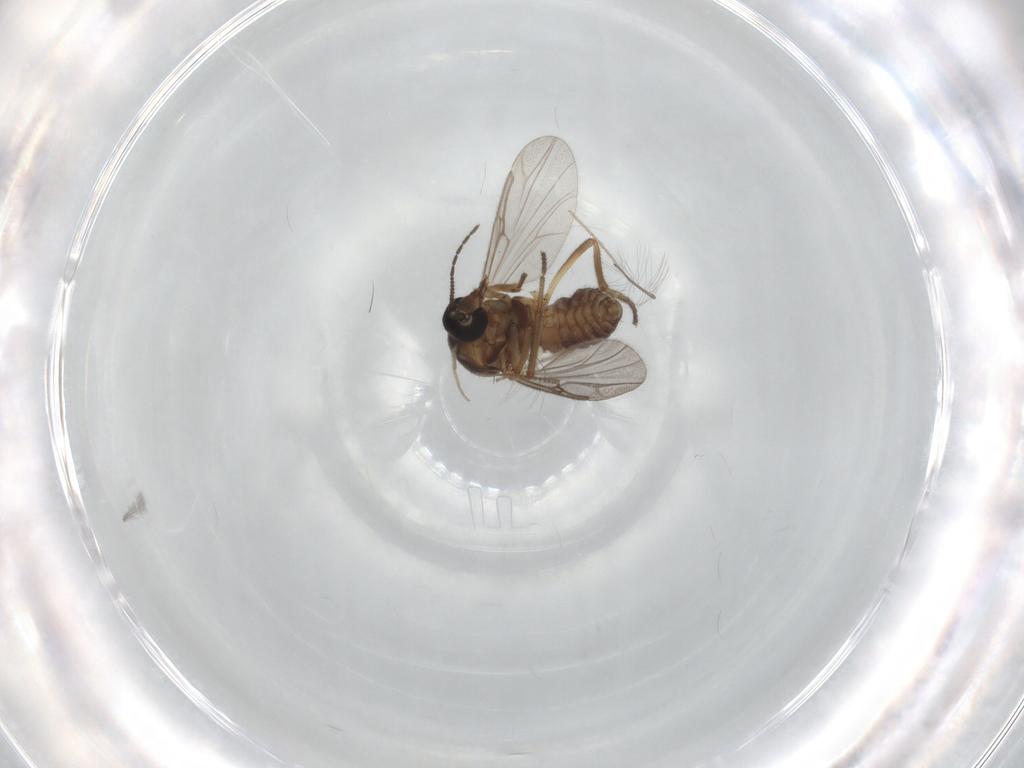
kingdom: Animalia
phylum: Arthropoda
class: Insecta
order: Diptera
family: Ceratopogonidae
